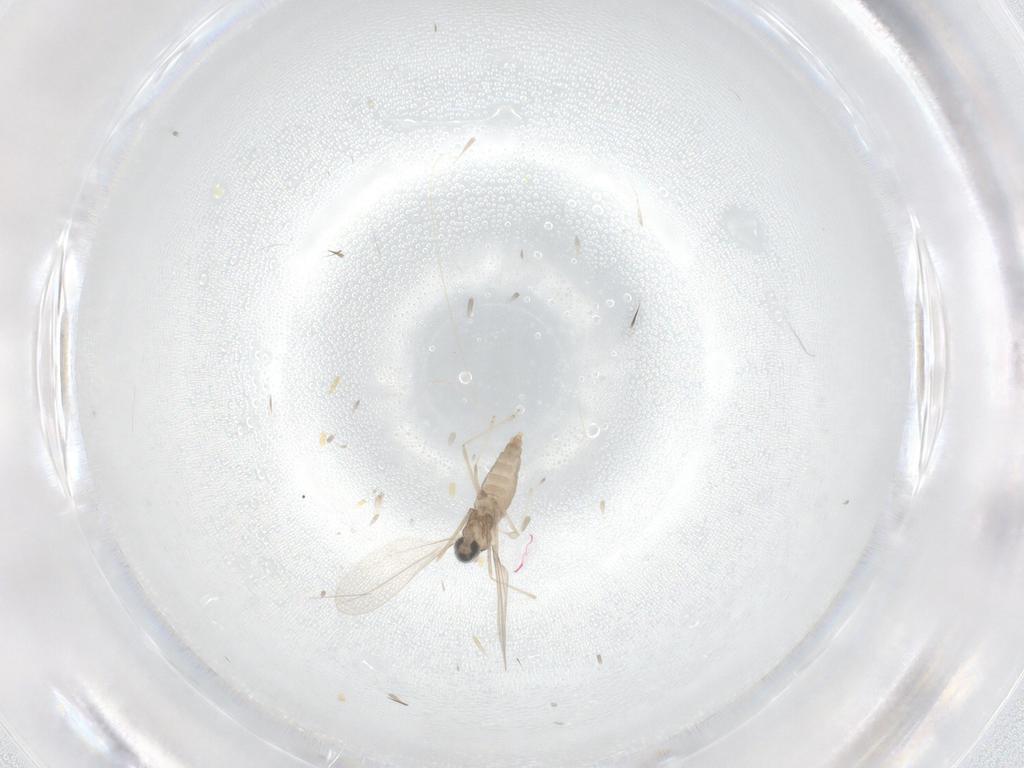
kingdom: Animalia
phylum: Arthropoda
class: Insecta
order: Diptera
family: Cecidomyiidae
